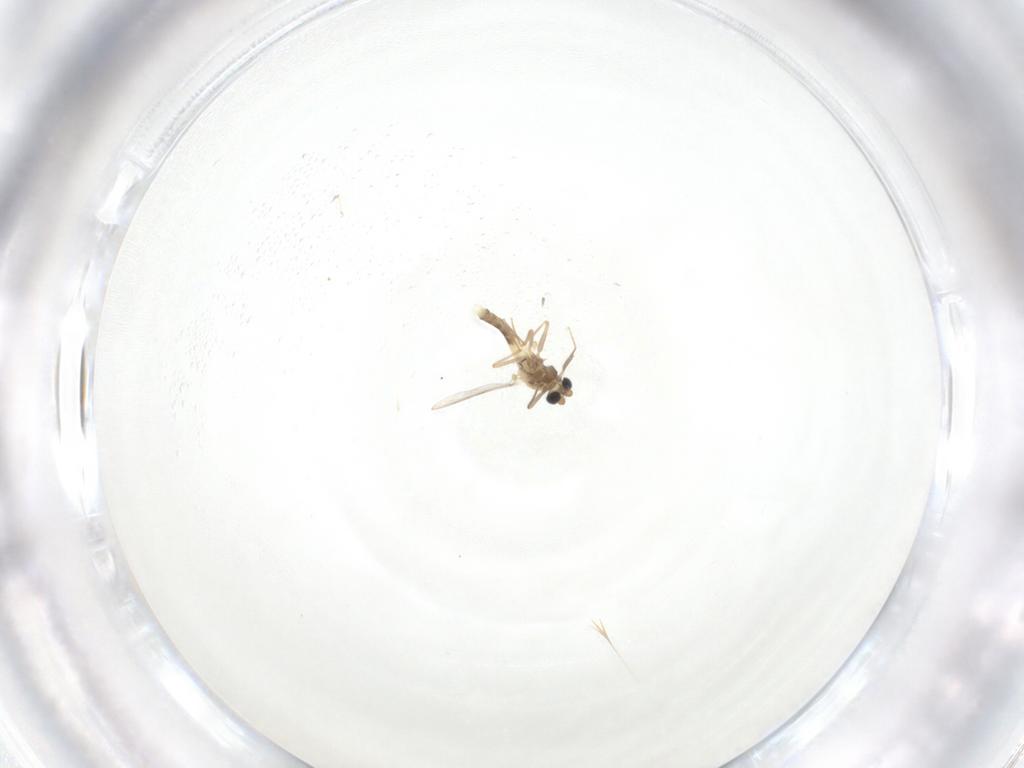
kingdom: Animalia
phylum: Arthropoda
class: Insecta
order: Diptera
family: Chironomidae
